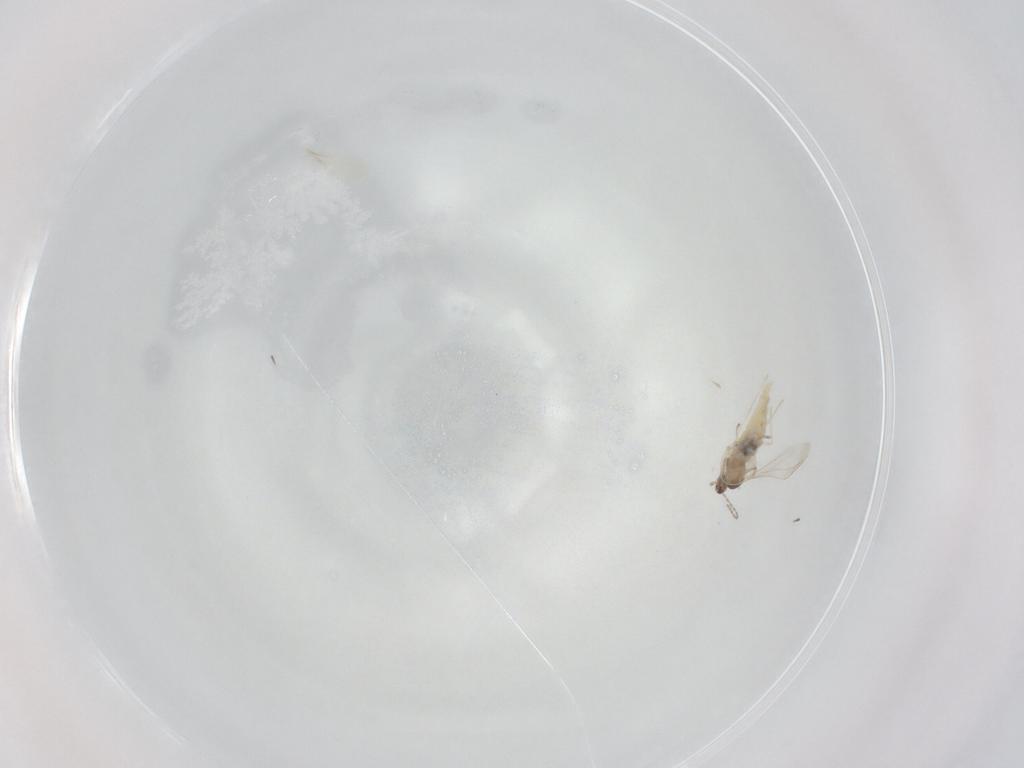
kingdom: Animalia
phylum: Arthropoda
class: Insecta
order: Diptera
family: Cecidomyiidae
